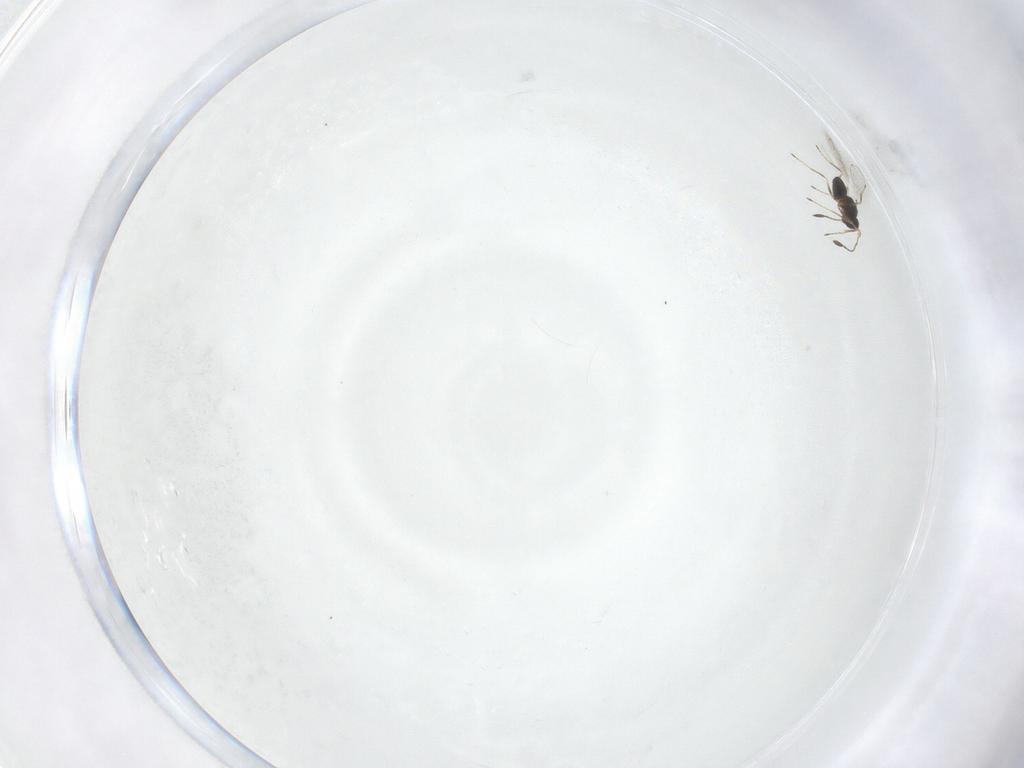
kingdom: Animalia
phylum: Arthropoda
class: Insecta
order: Hymenoptera
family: Mymaridae
